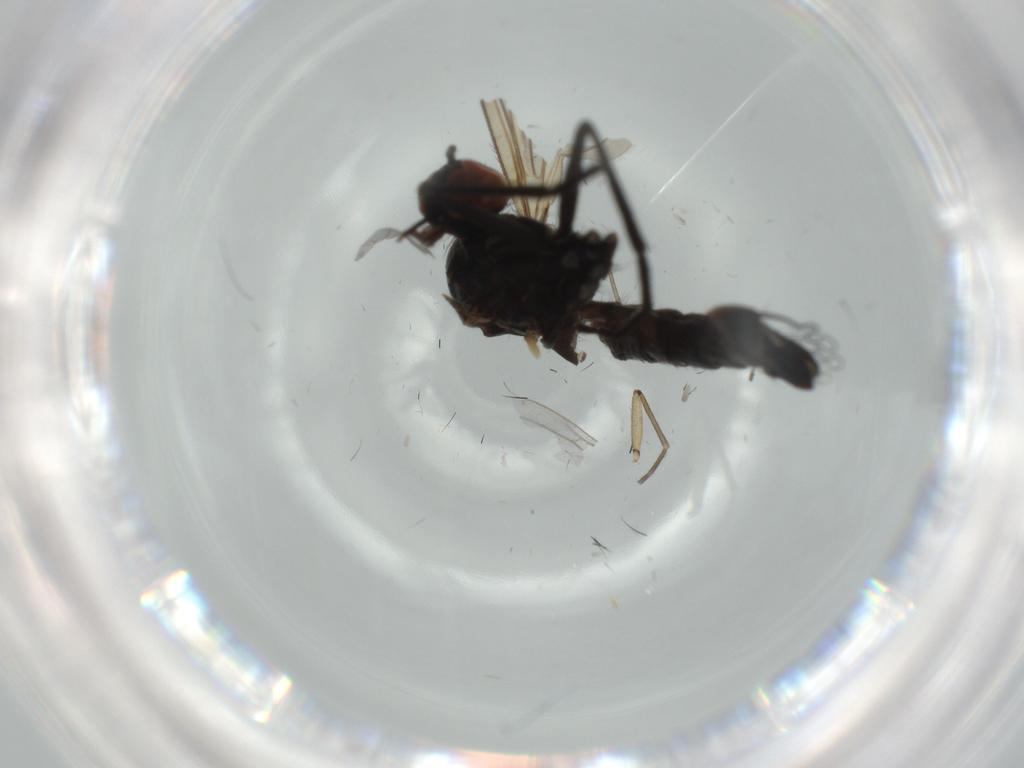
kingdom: Animalia
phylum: Arthropoda
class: Insecta
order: Diptera
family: Empididae
